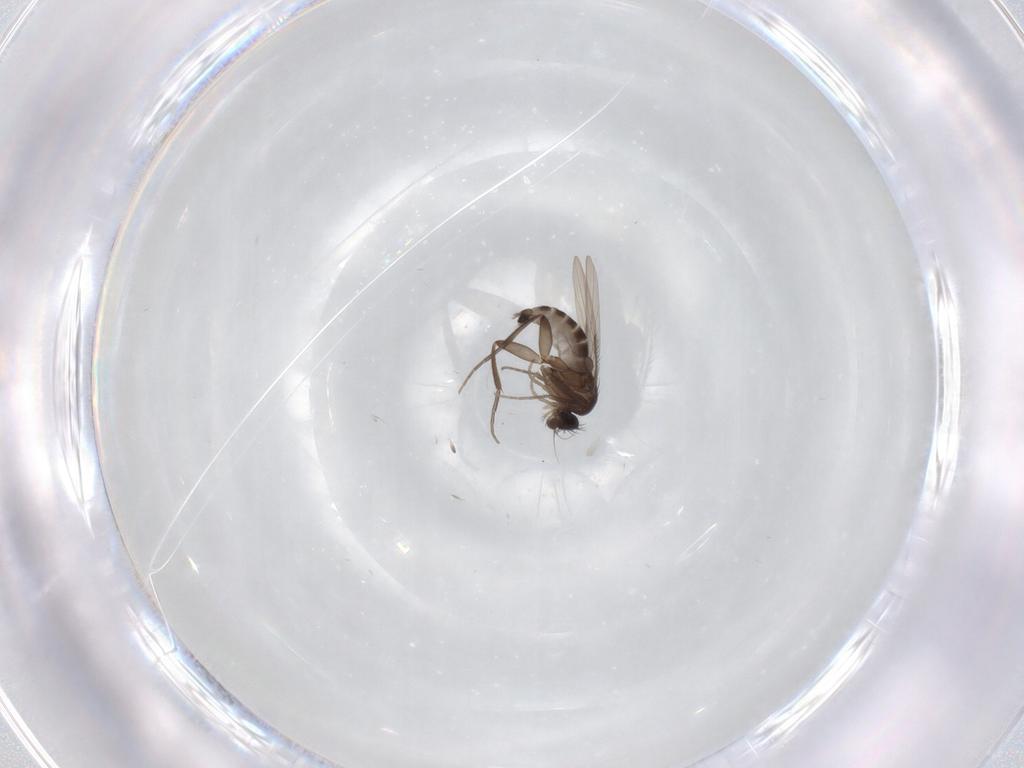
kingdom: Animalia
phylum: Arthropoda
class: Insecta
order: Diptera
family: Phoridae
